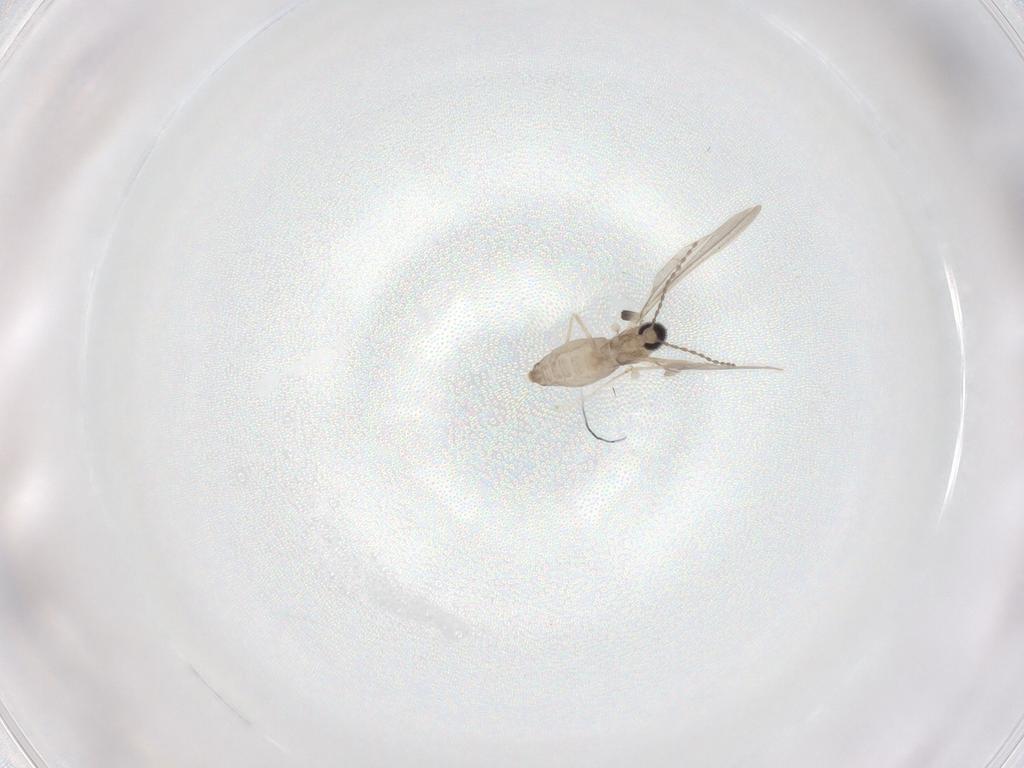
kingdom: Animalia
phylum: Arthropoda
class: Insecta
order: Diptera
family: Cecidomyiidae
